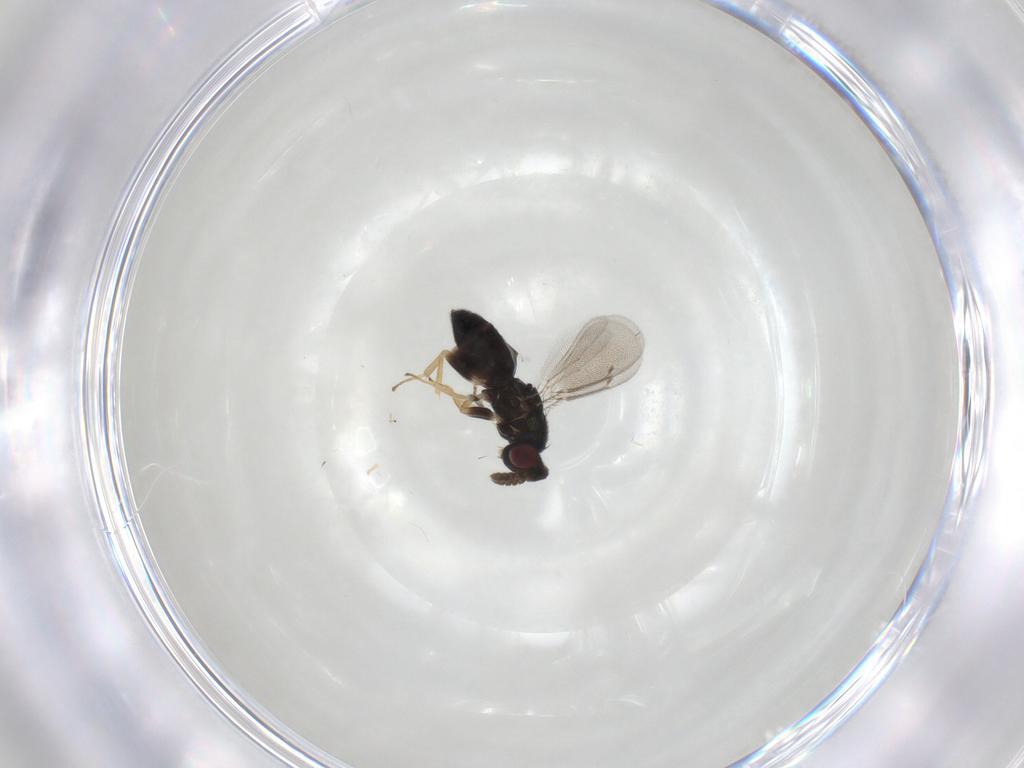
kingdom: Animalia
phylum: Arthropoda
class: Insecta
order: Hymenoptera
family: Eulophidae
